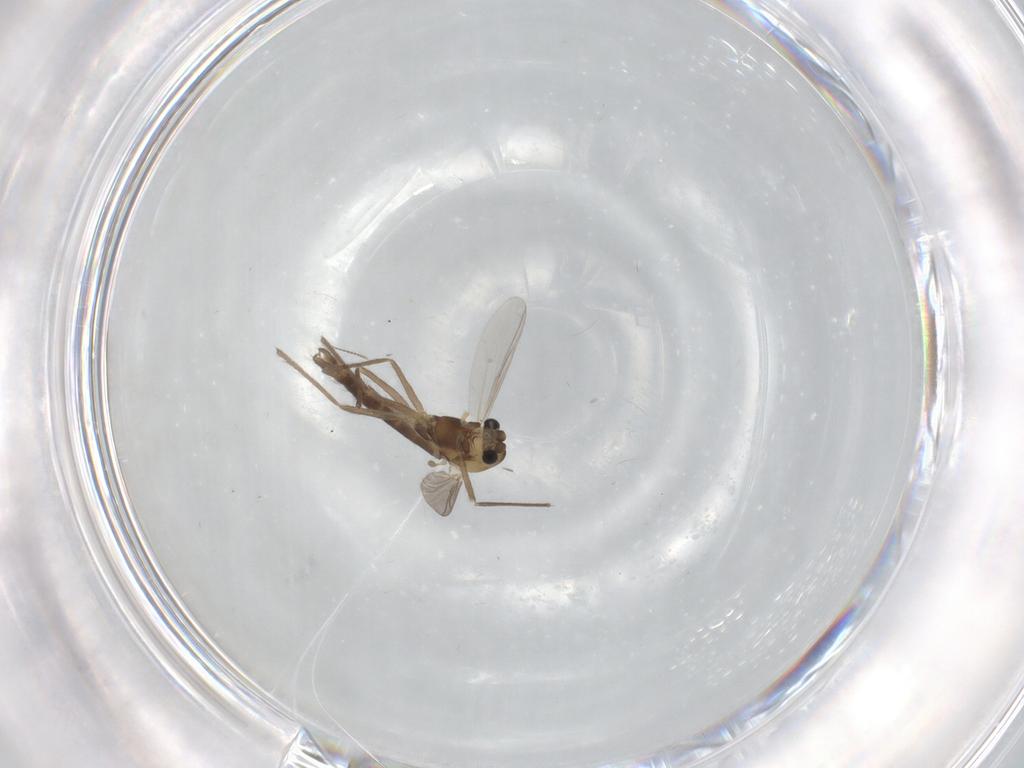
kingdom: Animalia
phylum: Arthropoda
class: Insecta
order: Diptera
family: Chironomidae
